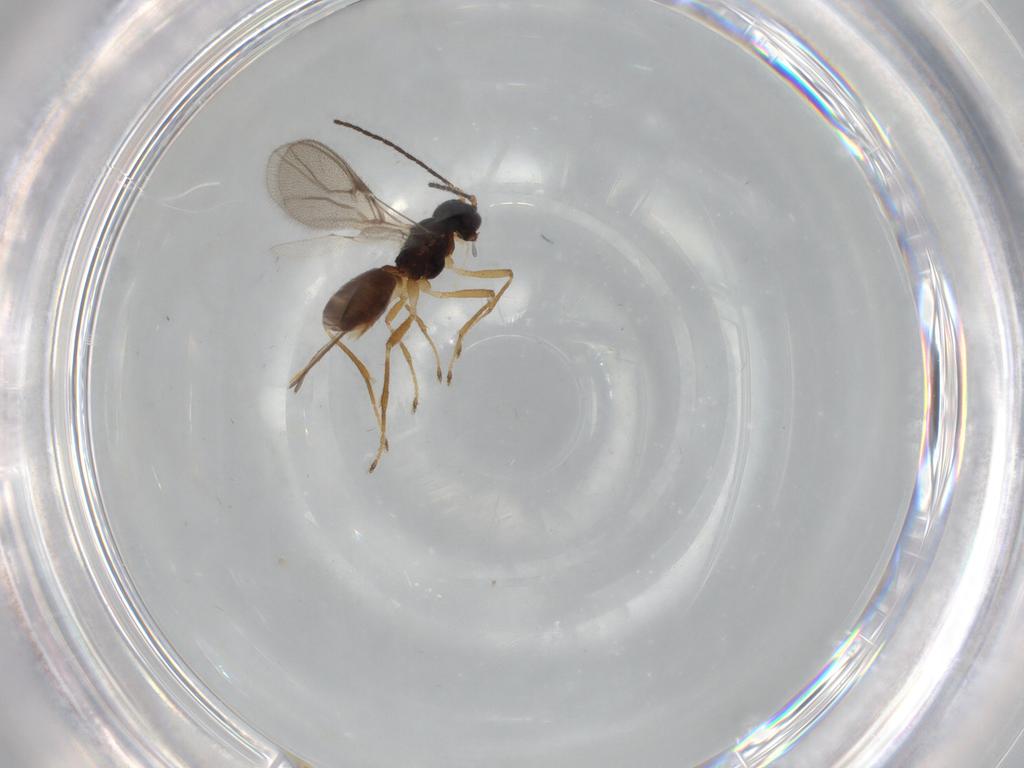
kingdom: Animalia
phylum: Arthropoda
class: Insecta
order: Hymenoptera
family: Braconidae
